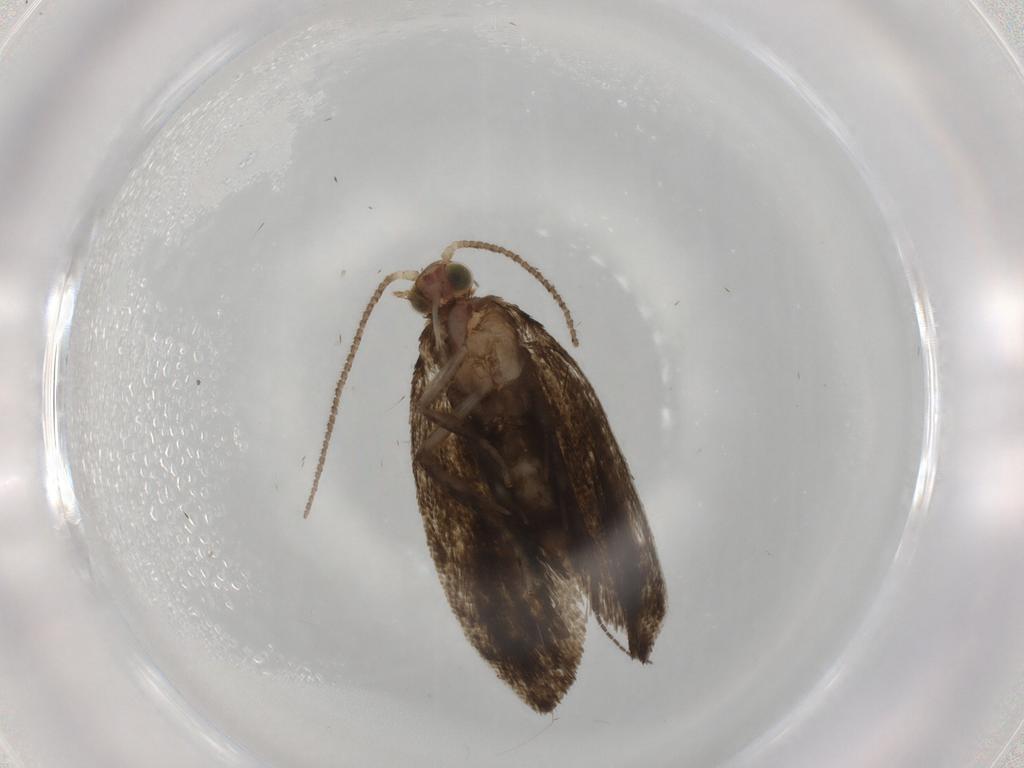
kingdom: Animalia
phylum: Arthropoda
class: Insecta
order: Lepidoptera
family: Tortricidae
